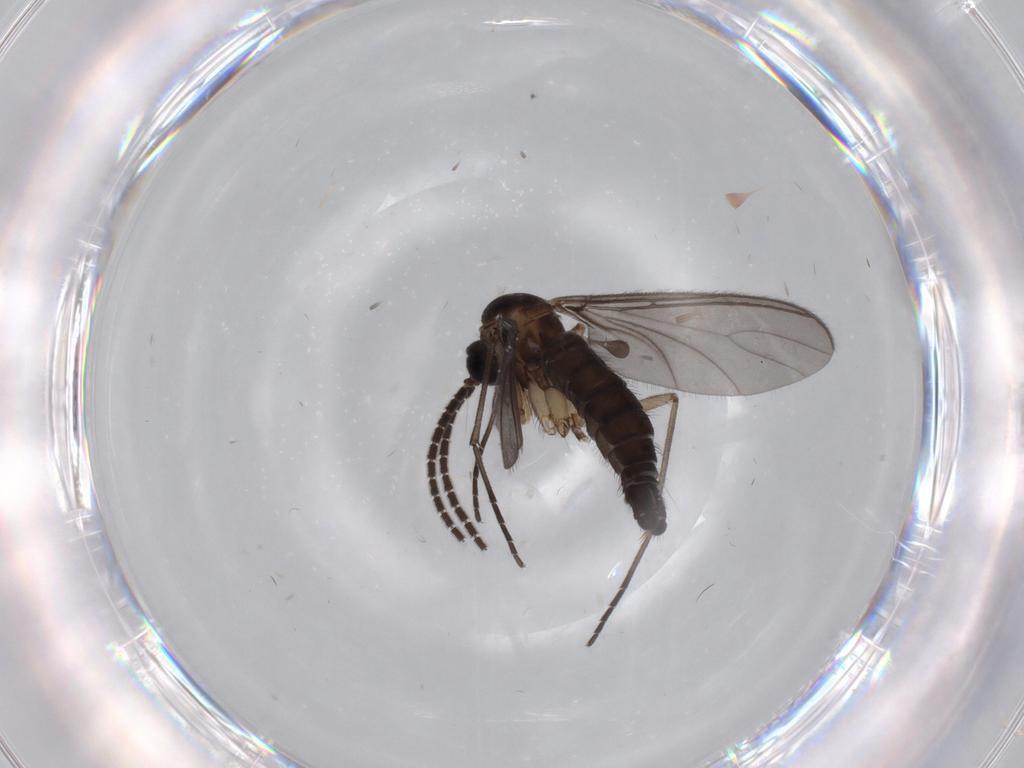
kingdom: Animalia
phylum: Arthropoda
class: Insecta
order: Diptera
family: Sciaridae
